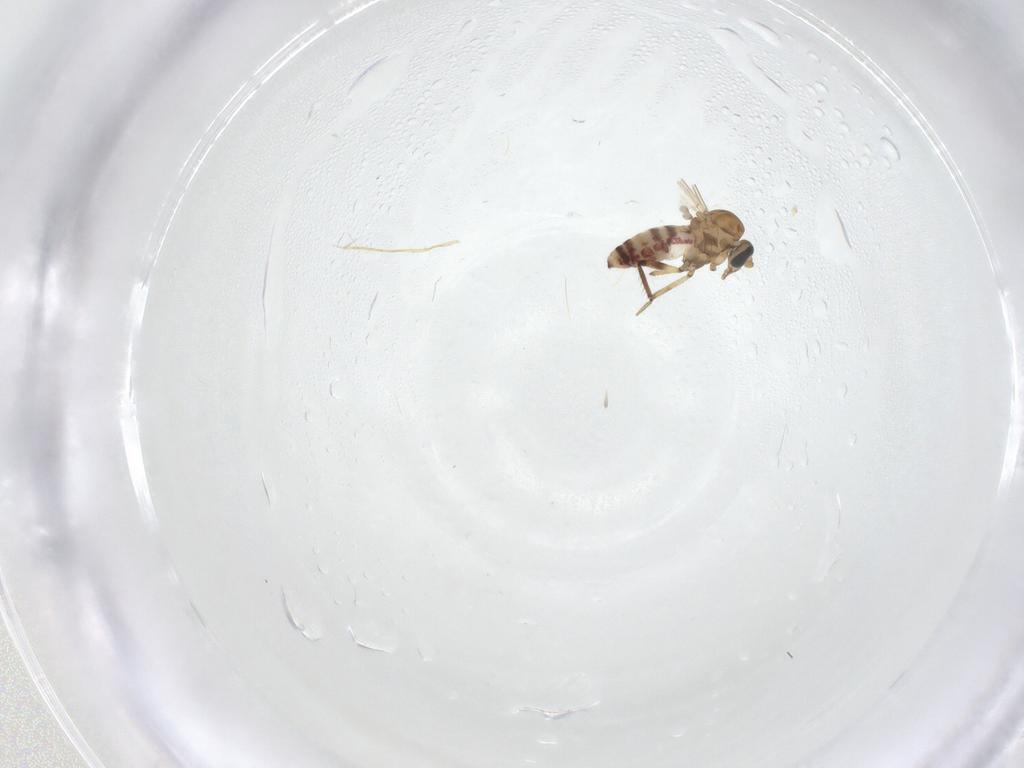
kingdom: Animalia
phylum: Arthropoda
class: Insecta
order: Diptera
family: Ceratopogonidae
